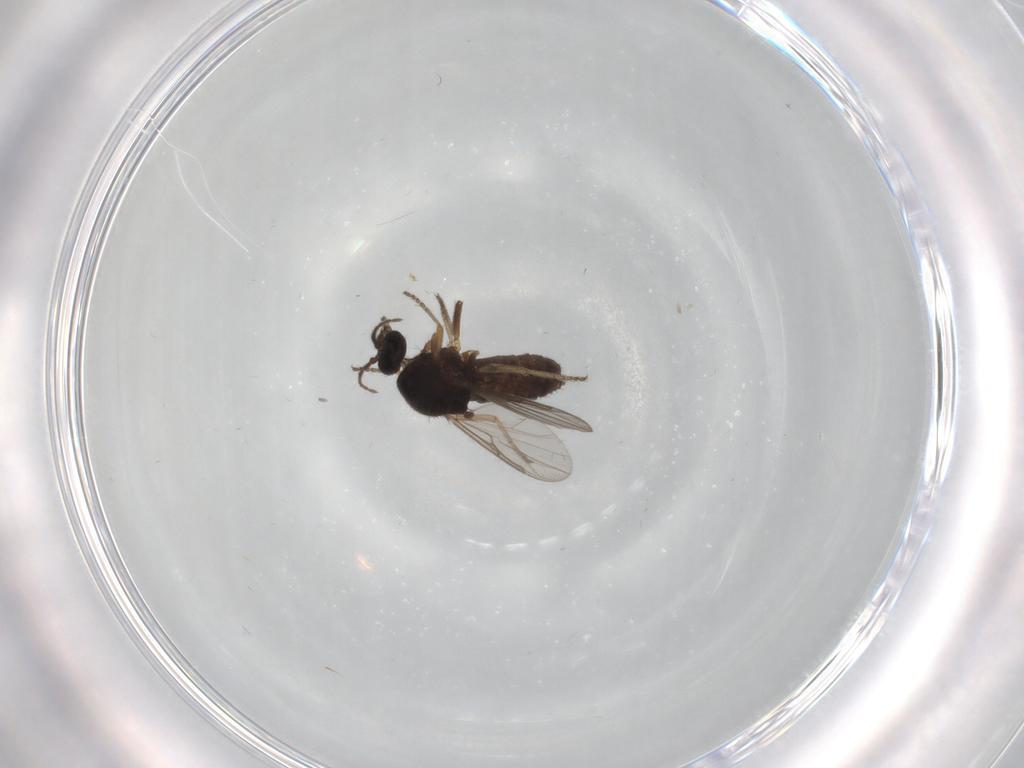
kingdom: Animalia
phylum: Arthropoda
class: Insecta
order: Diptera
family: Ceratopogonidae
